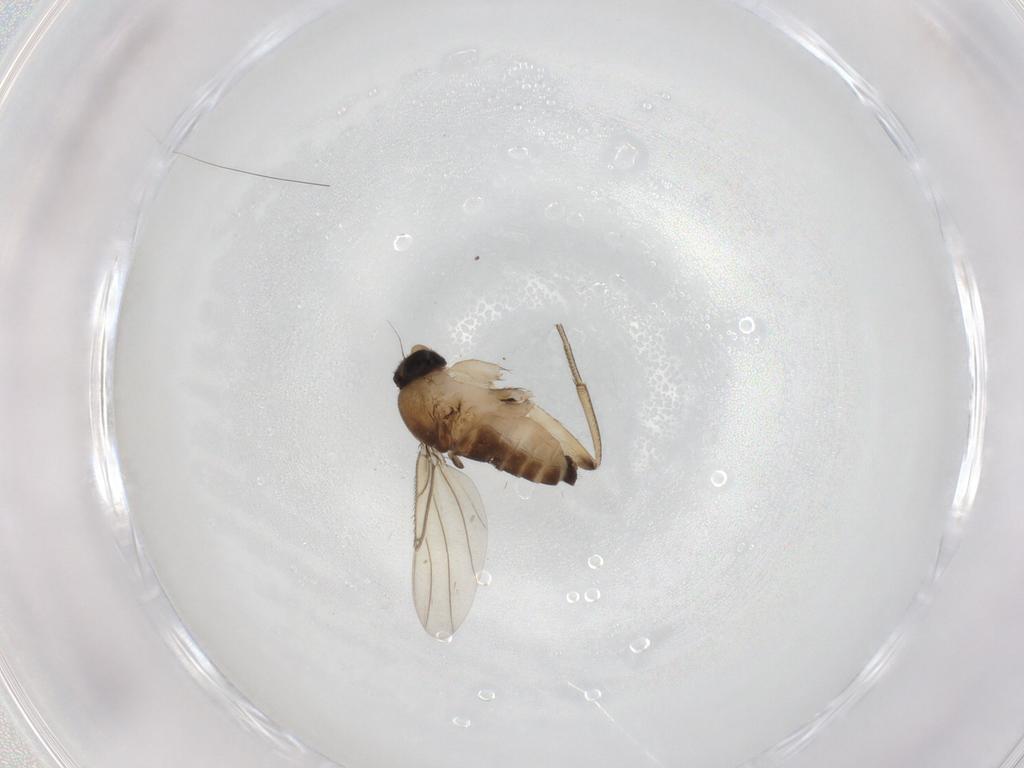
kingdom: Animalia
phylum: Arthropoda
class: Insecta
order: Diptera
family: Phoridae
